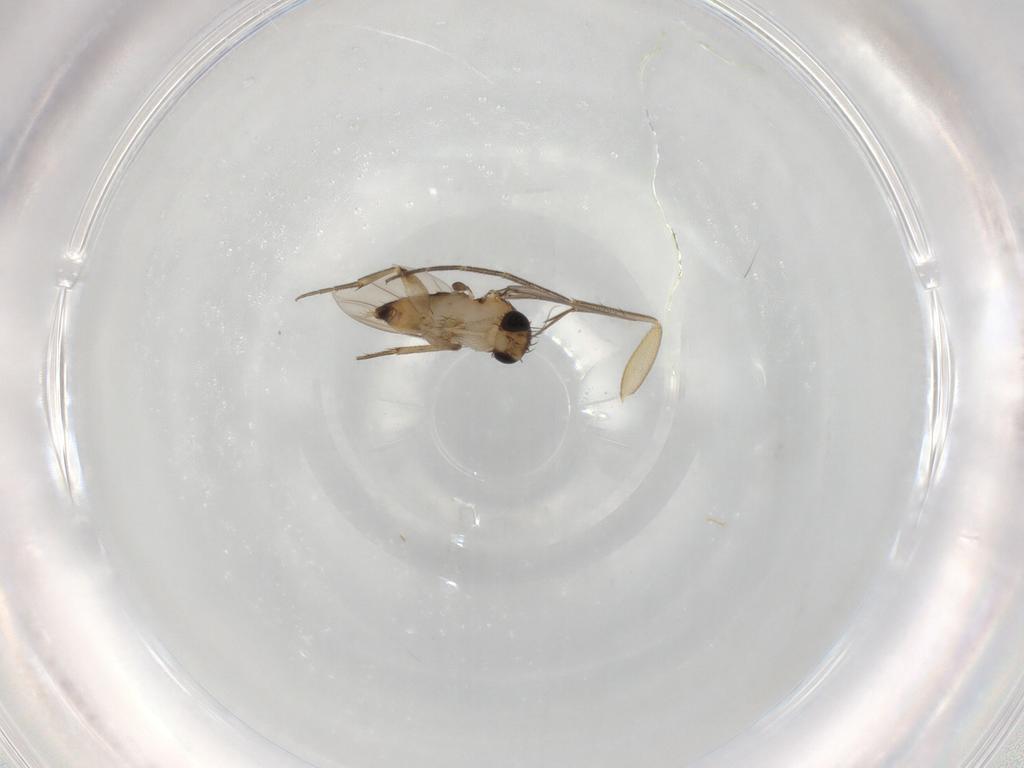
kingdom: Animalia
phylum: Arthropoda
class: Insecta
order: Diptera
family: Phoridae
